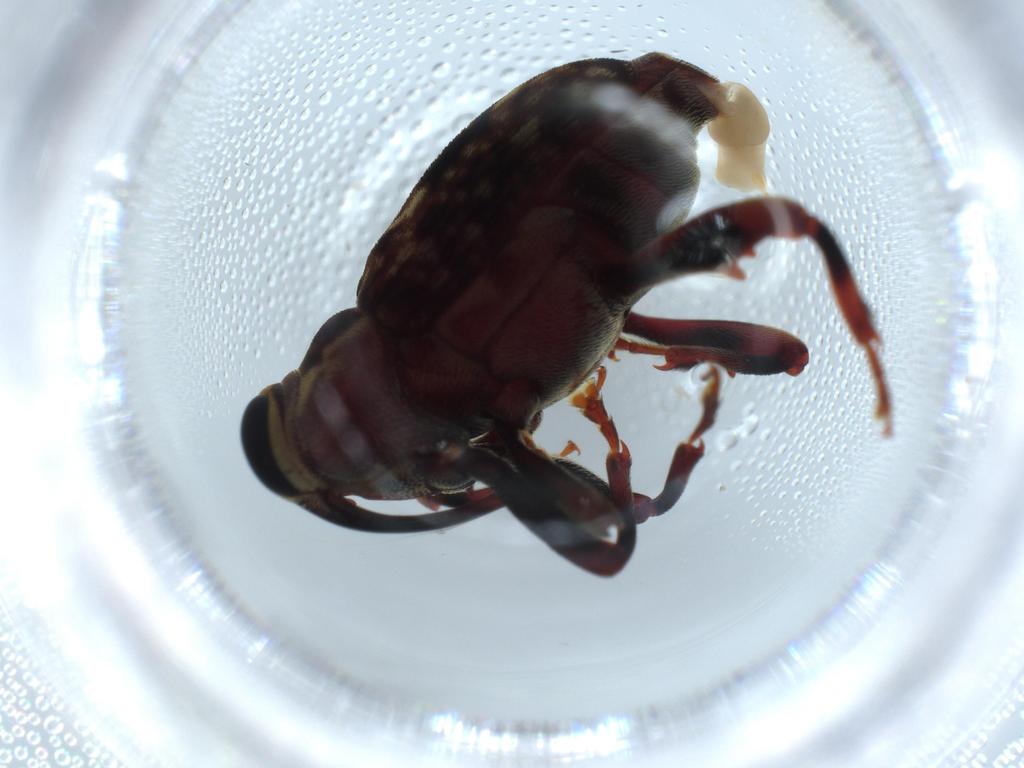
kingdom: Animalia
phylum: Arthropoda
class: Insecta
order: Coleoptera
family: Curculionidae
